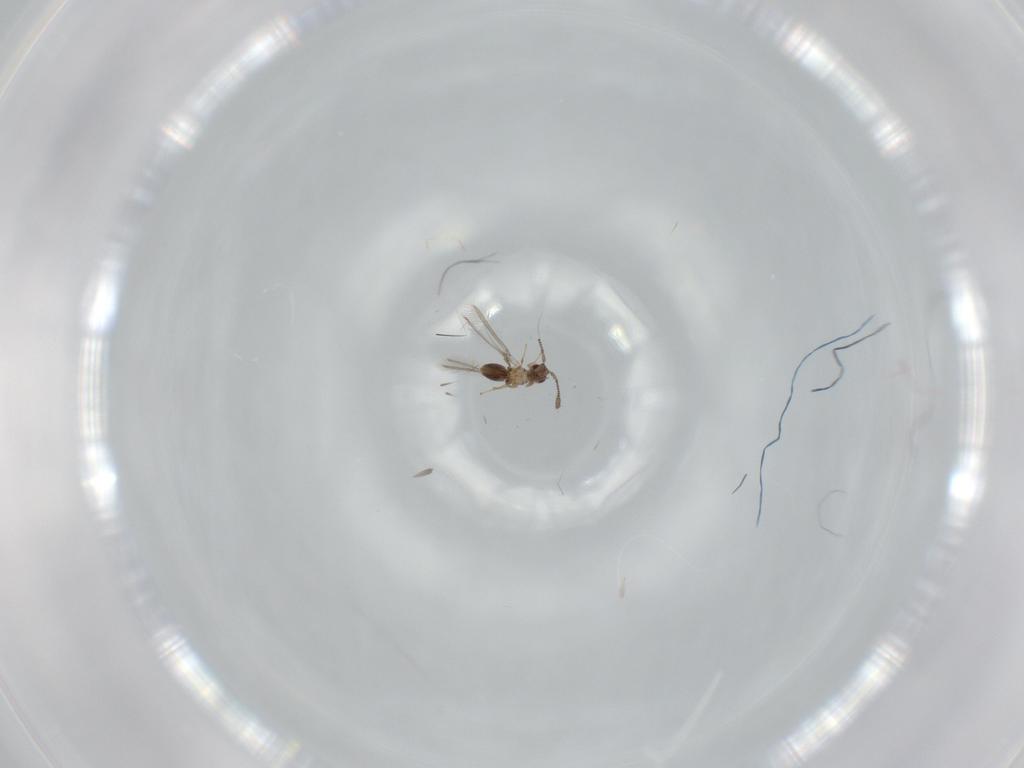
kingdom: Animalia
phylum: Arthropoda
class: Insecta
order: Hymenoptera
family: Mymaridae
